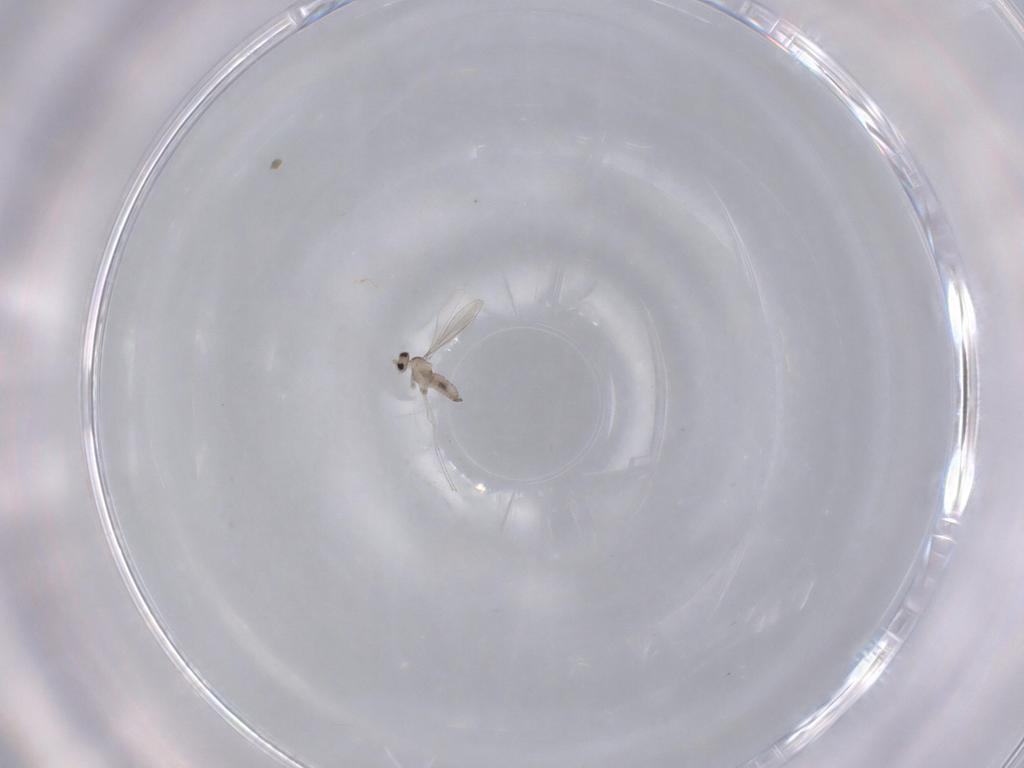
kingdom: Animalia
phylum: Arthropoda
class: Insecta
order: Diptera
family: Cecidomyiidae
